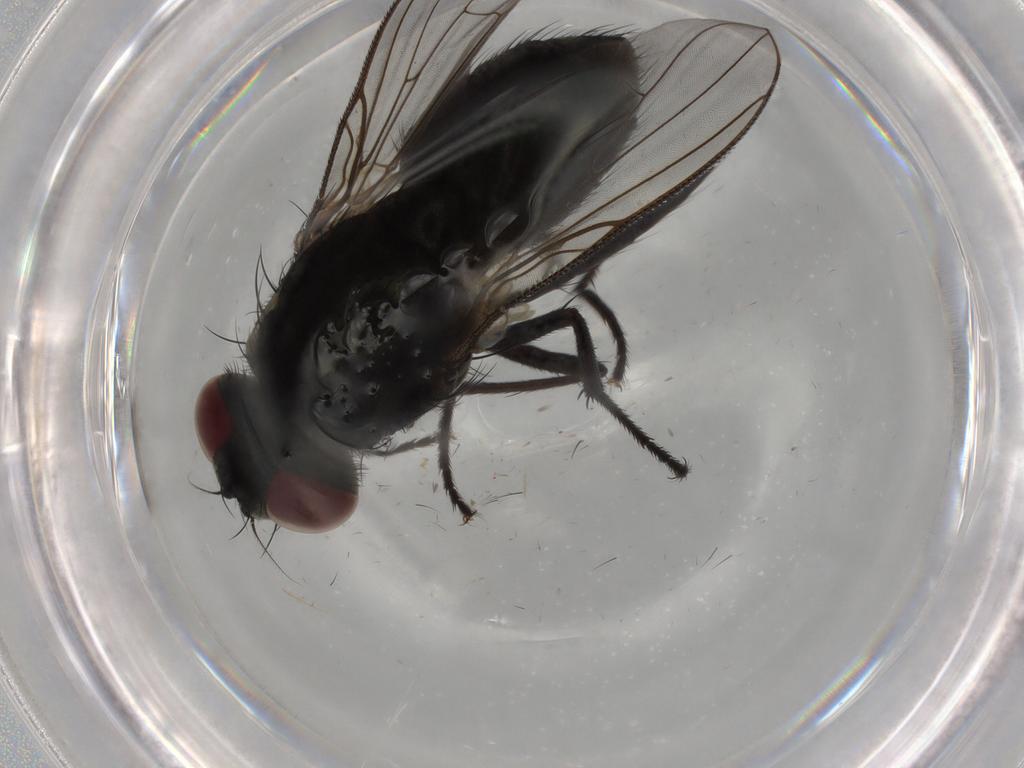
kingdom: Animalia
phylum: Arthropoda
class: Insecta
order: Diptera
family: Muscidae
